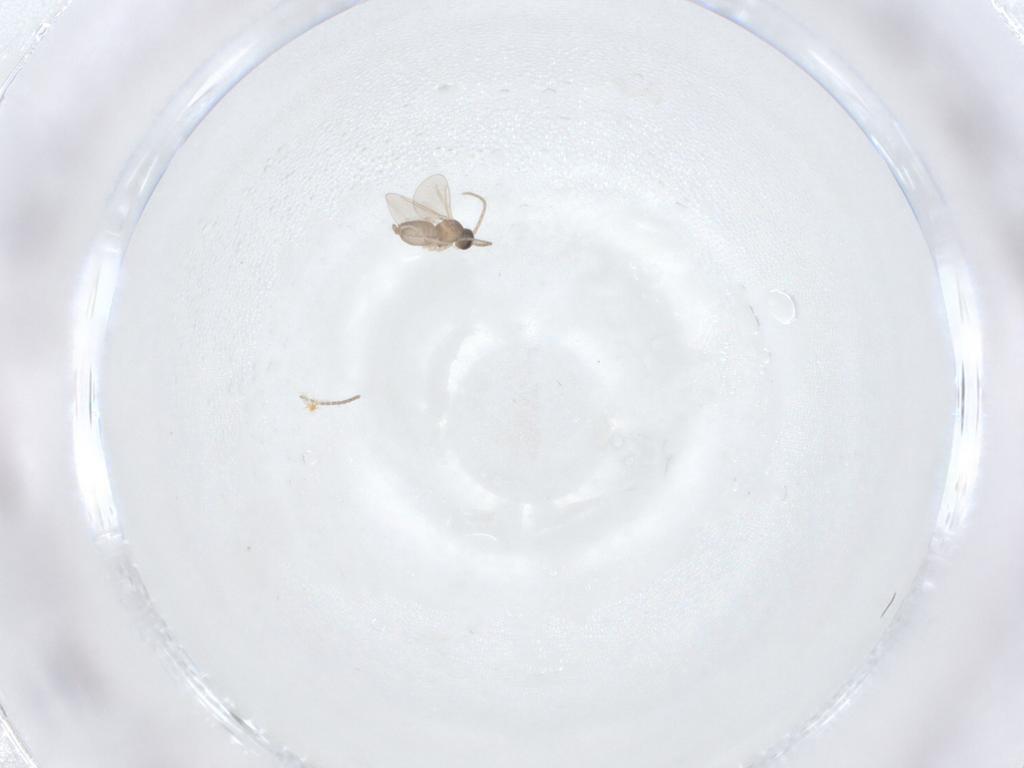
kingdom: Animalia
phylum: Arthropoda
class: Insecta
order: Diptera
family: Cecidomyiidae
